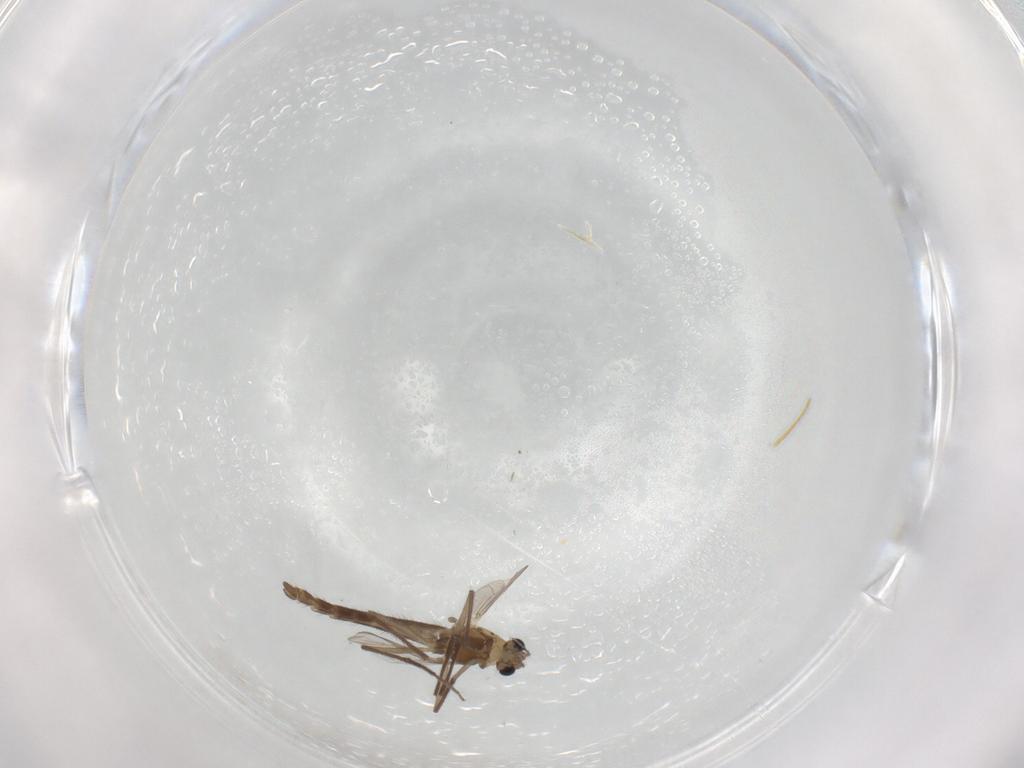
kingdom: Animalia
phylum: Arthropoda
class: Insecta
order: Diptera
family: Chironomidae
